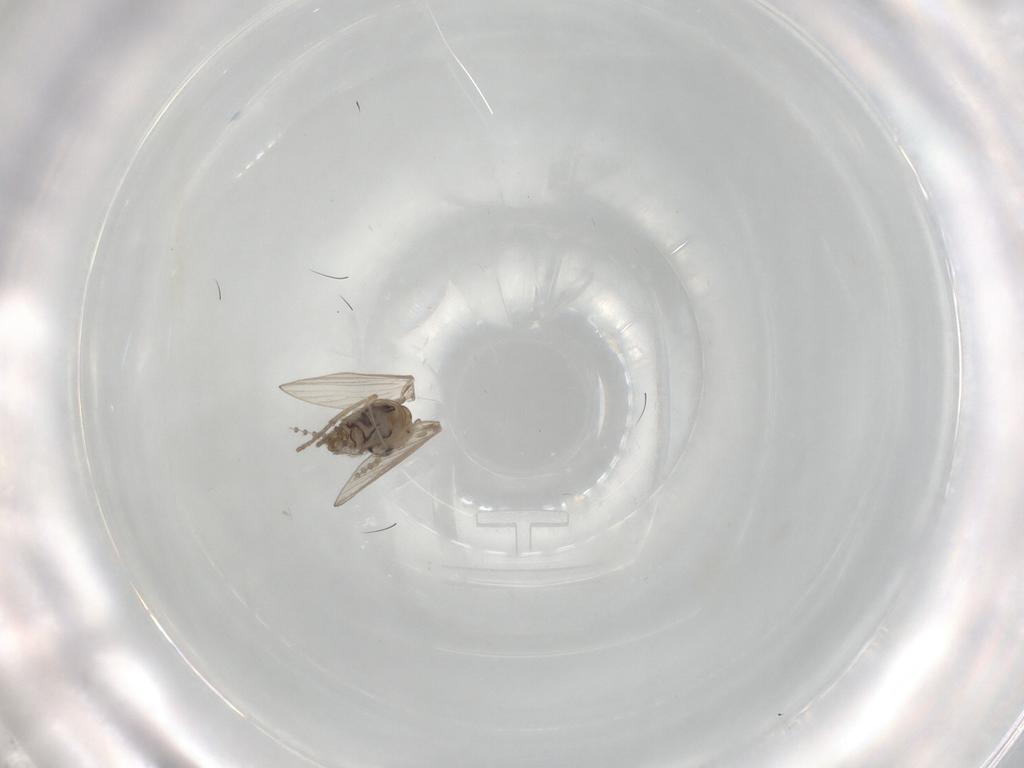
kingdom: Animalia
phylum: Arthropoda
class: Insecta
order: Diptera
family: Psychodidae
